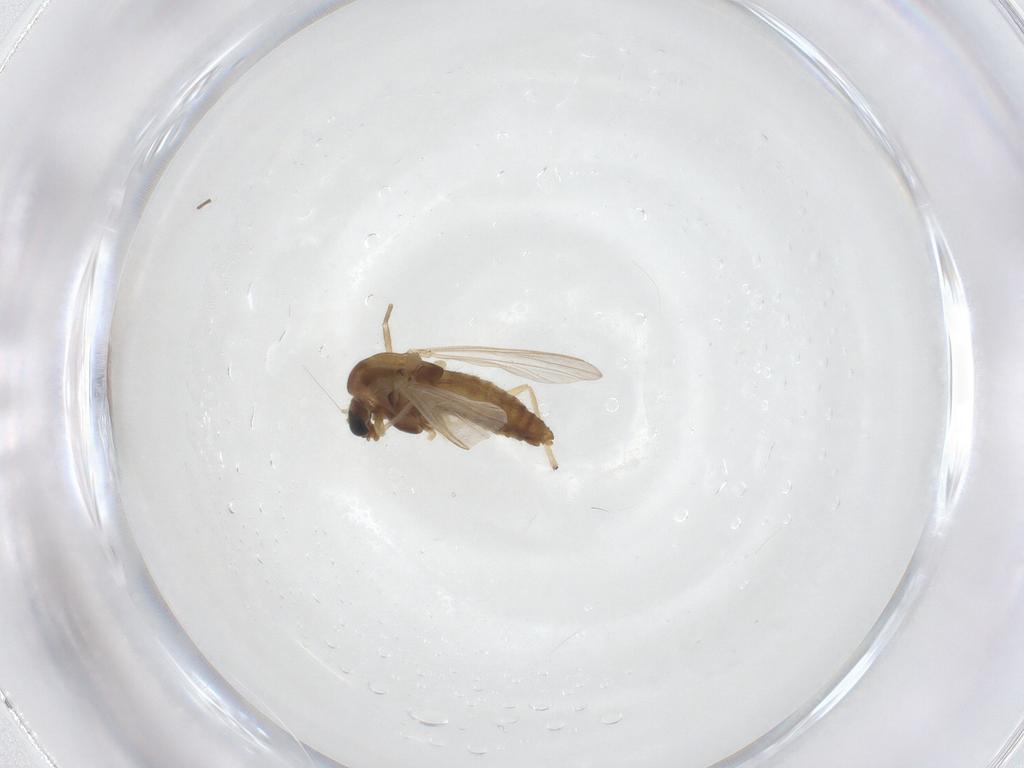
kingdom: Animalia
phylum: Arthropoda
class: Insecta
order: Diptera
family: Chironomidae
